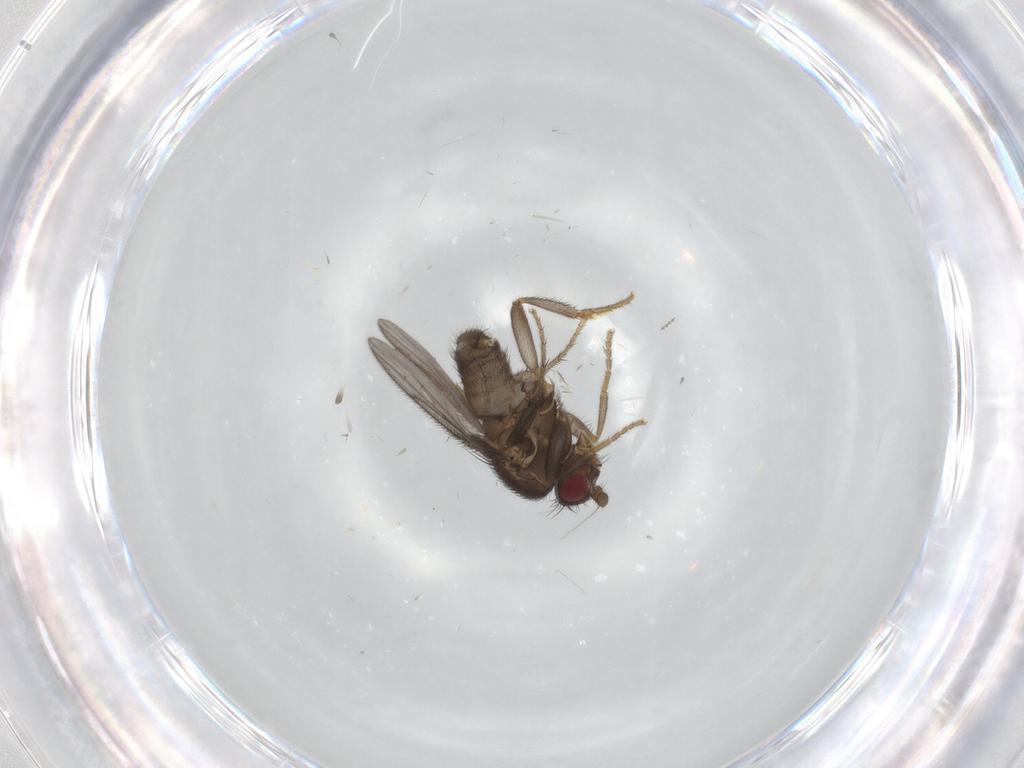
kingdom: Animalia
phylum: Arthropoda
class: Insecta
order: Diptera
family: Sphaeroceridae
